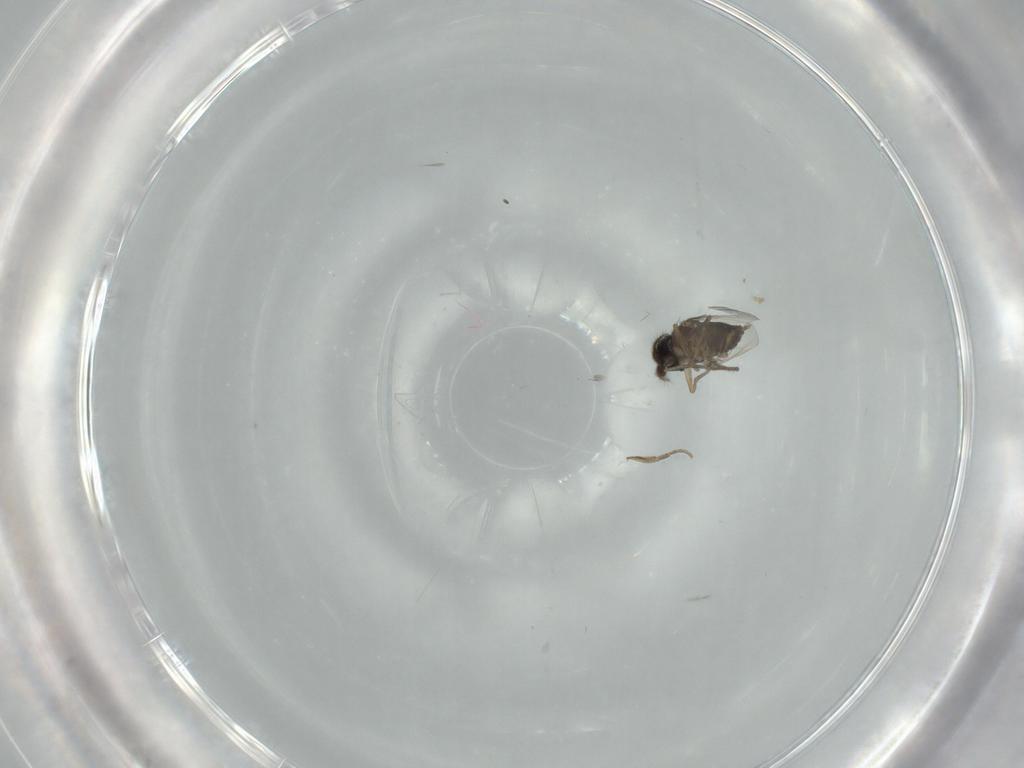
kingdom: Animalia
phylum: Arthropoda
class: Insecta
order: Diptera
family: Phoridae
